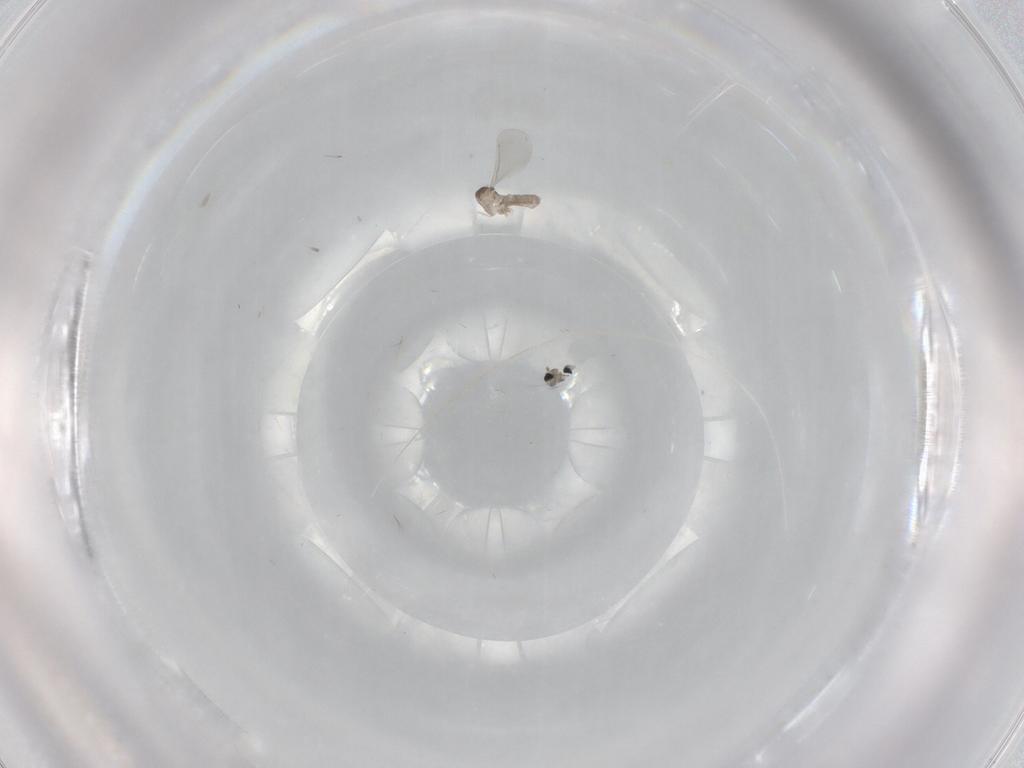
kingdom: Animalia
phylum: Arthropoda
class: Insecta
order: Diptera
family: Cecidomyiidae
